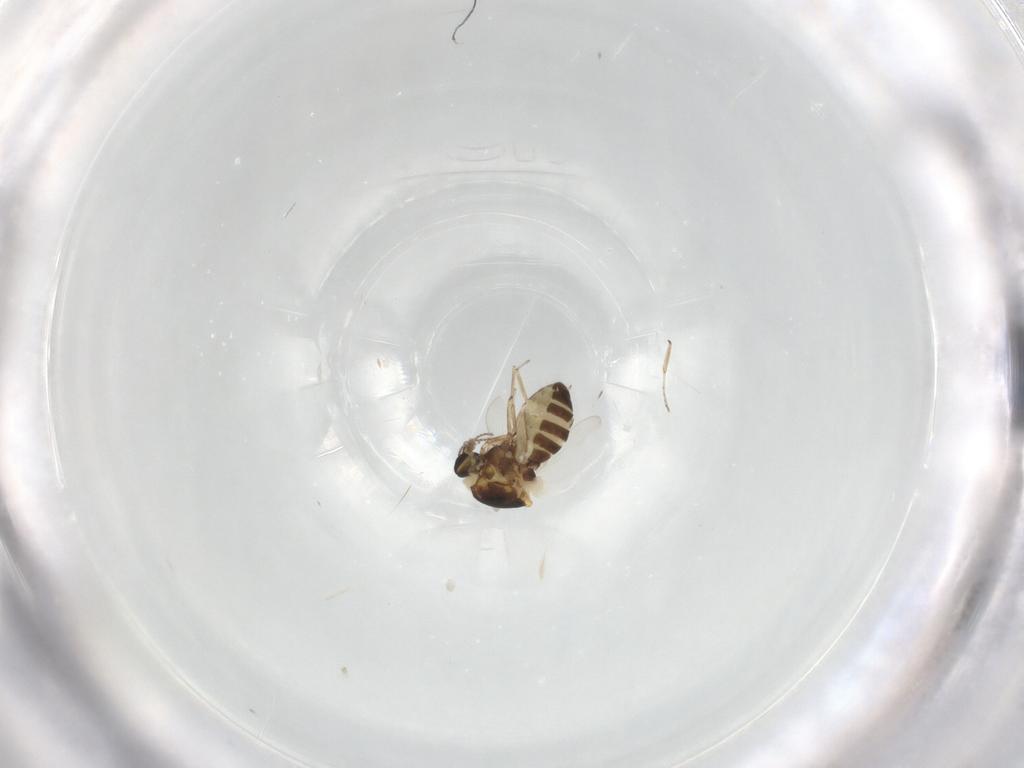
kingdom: Animalia
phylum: Arthropoda
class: Insecta
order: Diptera
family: Ceratopogonidae
